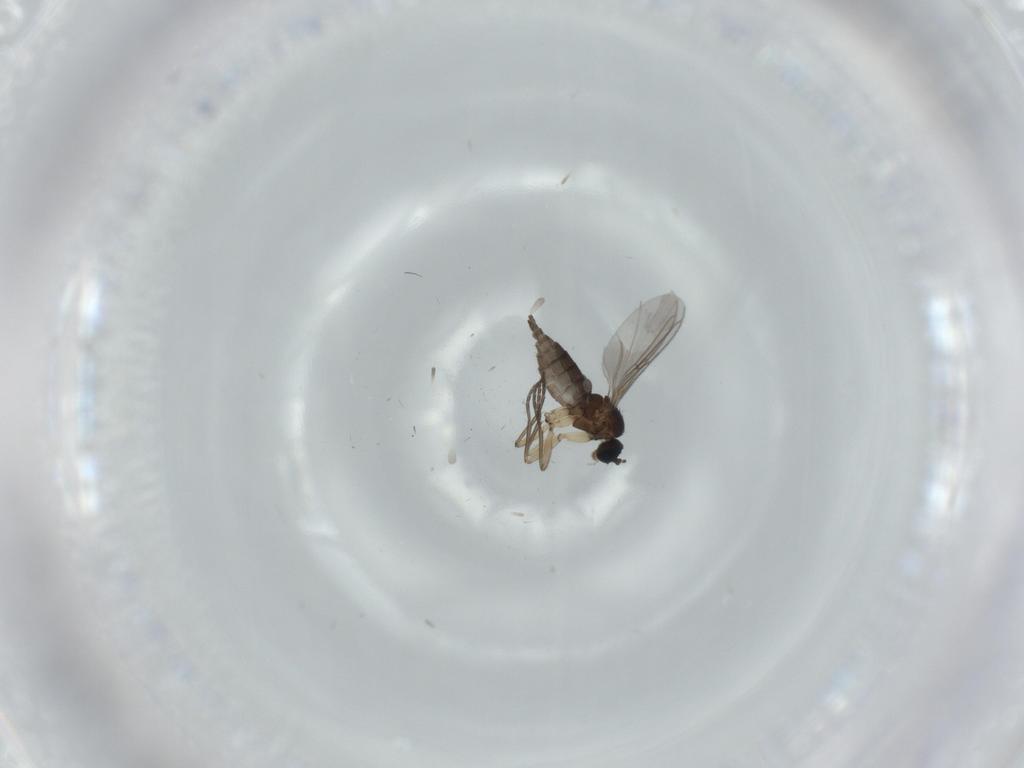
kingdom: Animalia
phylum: Arthropoda
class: Insecta
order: Diptera
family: Sciaridae
